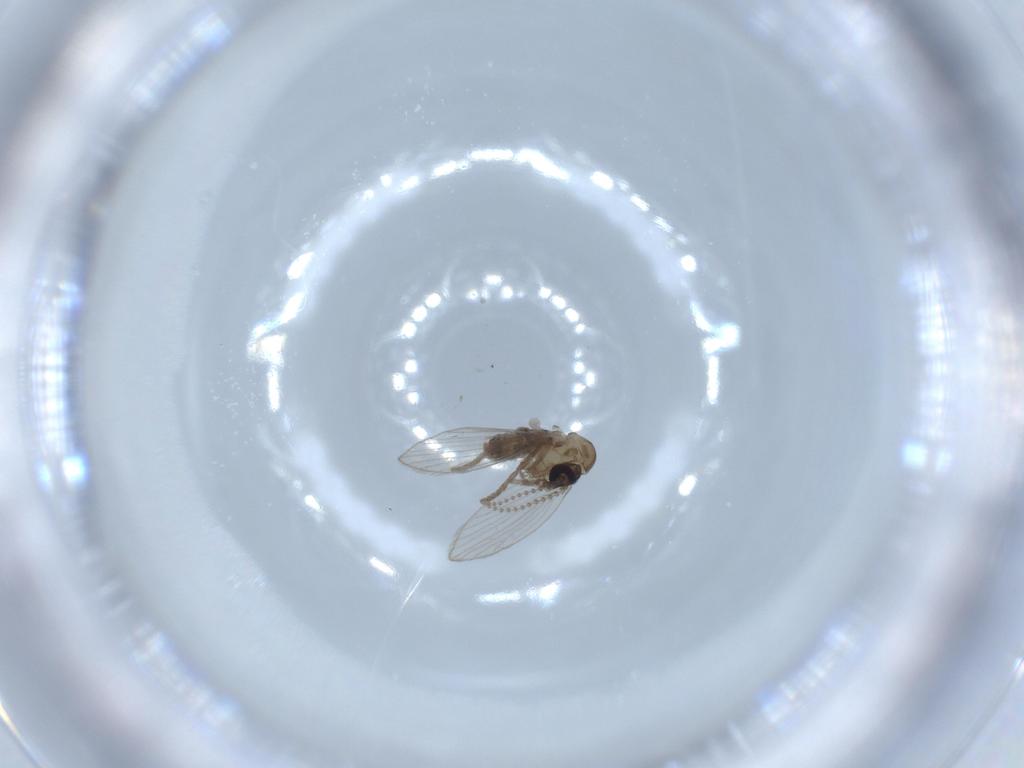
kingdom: Animalia
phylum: Arthropoda
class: Insecta
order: Diptera
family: Psychodidae
